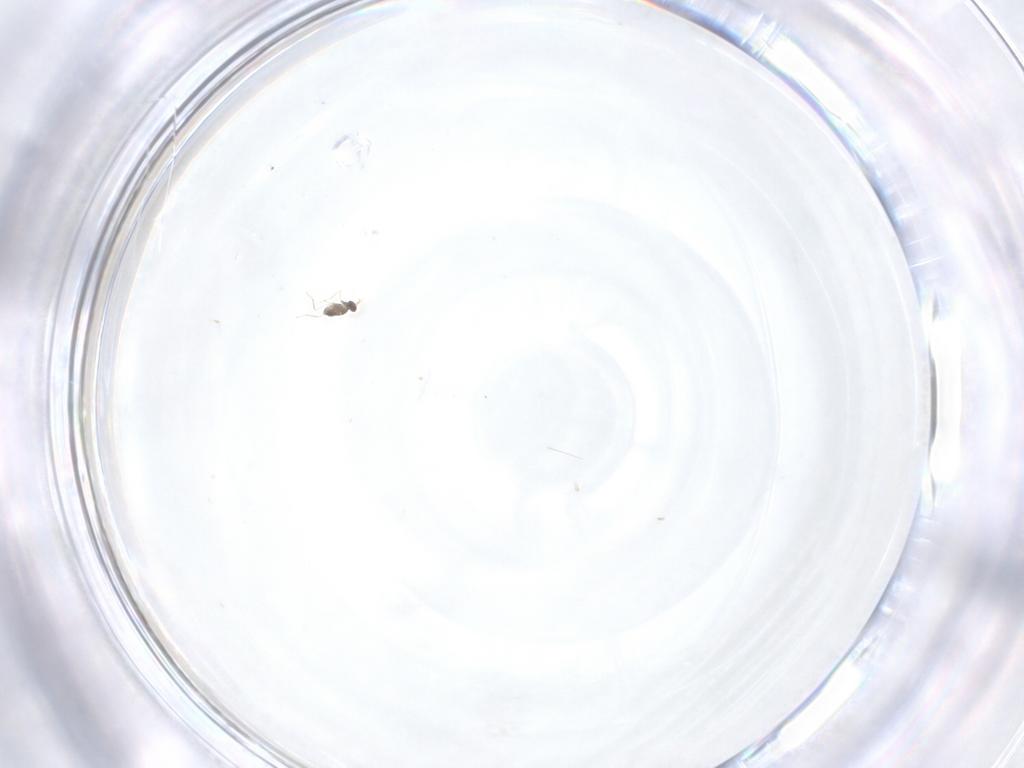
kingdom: Animalia
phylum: Arthropoda
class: Insecta
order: Hymenoptera
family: Mymaridae
